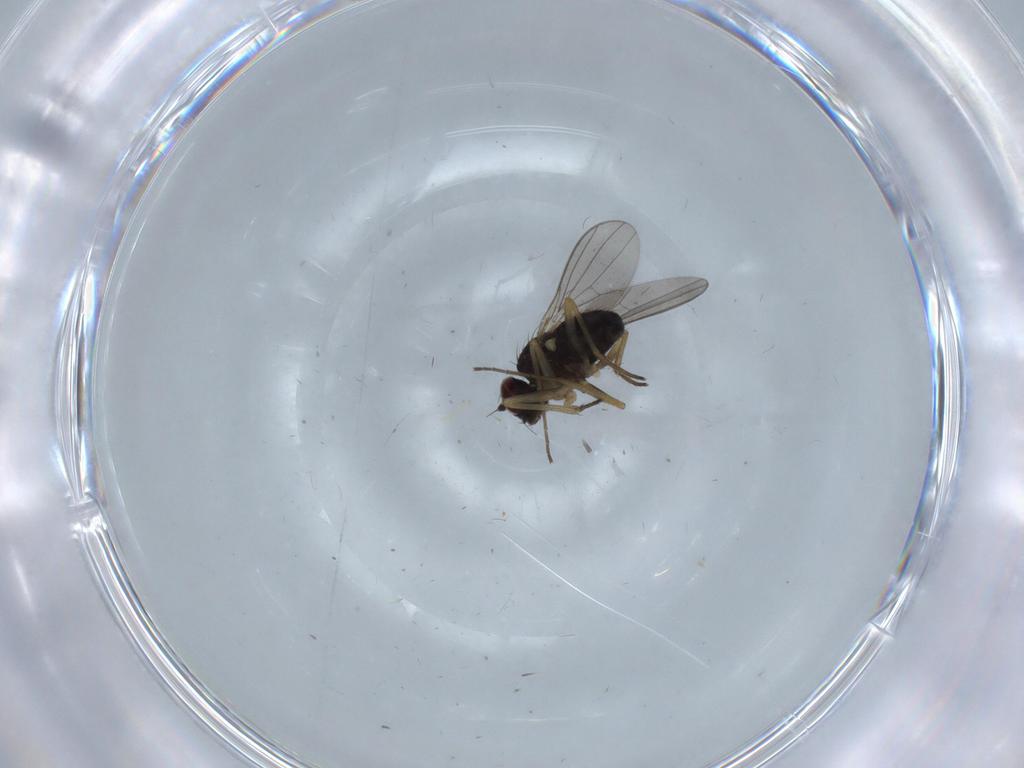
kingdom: Animalia
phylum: Arthropoda
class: Insecta
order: Diptera
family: Dolichopodidae
